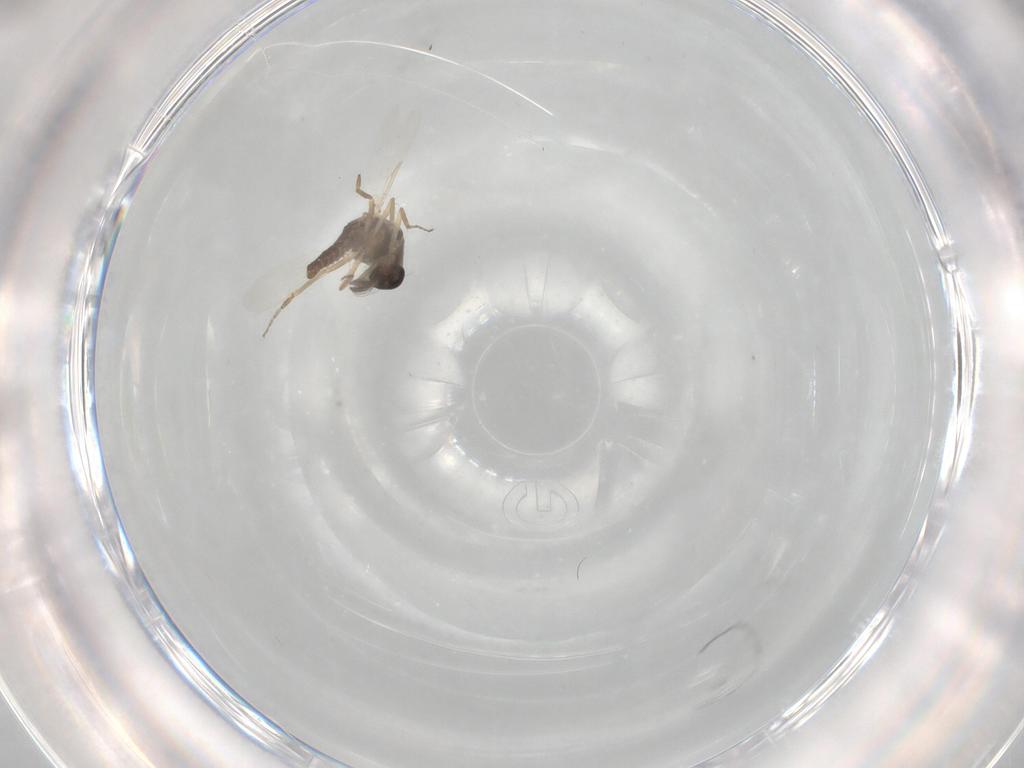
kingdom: Animalia
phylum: Arthropoda
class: Insecta
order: Diptera
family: Ceratopogonidae
